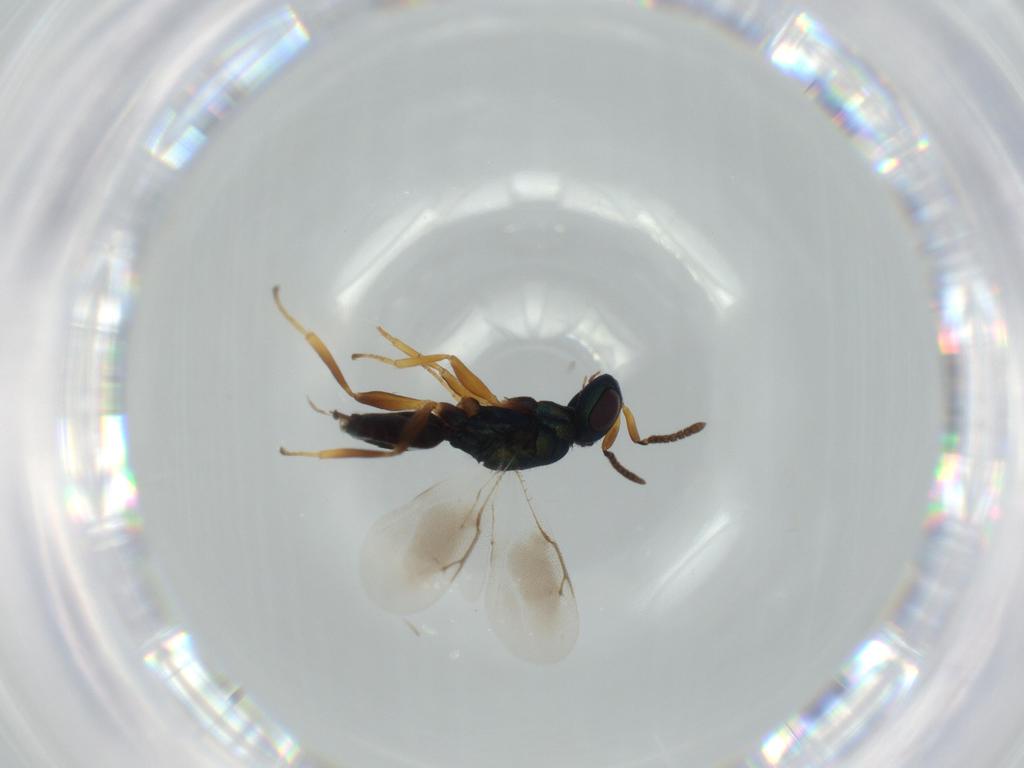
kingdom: Animalia
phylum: Arthropoda
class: Insecta
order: Hymenoptera
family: Pteromalidae
